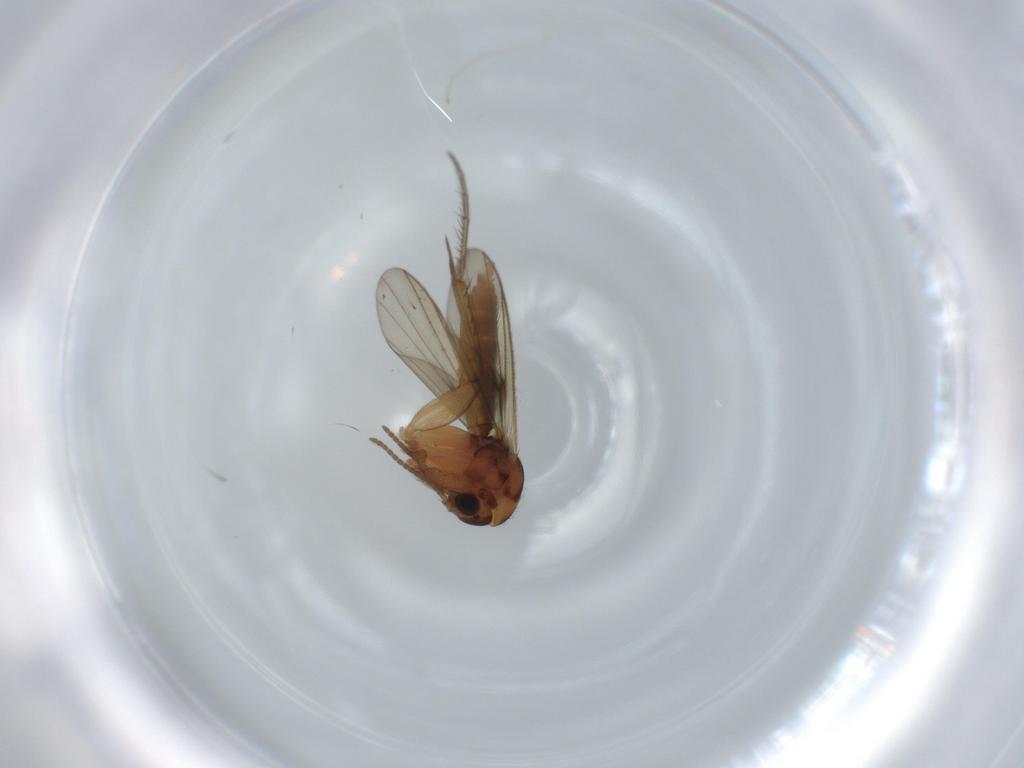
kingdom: Animalia
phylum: Arthropoda
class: Insecta
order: Diptera
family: Mycetophilidae
